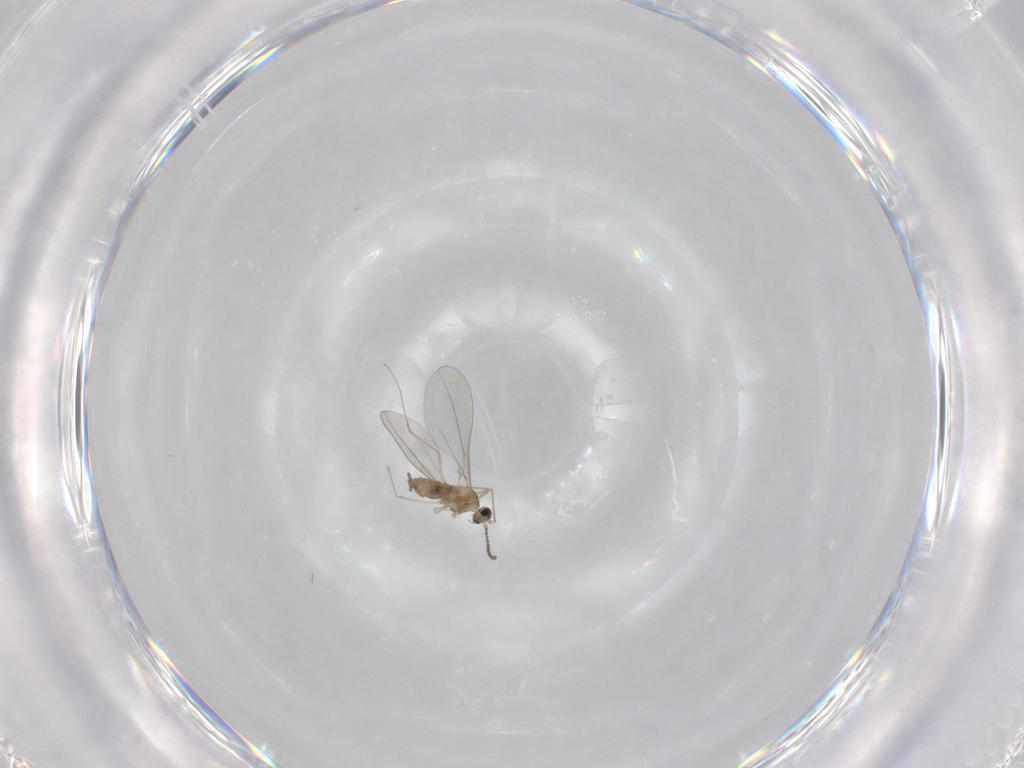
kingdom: Animalia
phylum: Arthropoda
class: Insecta
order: Diptera
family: Cecidomyiidae
